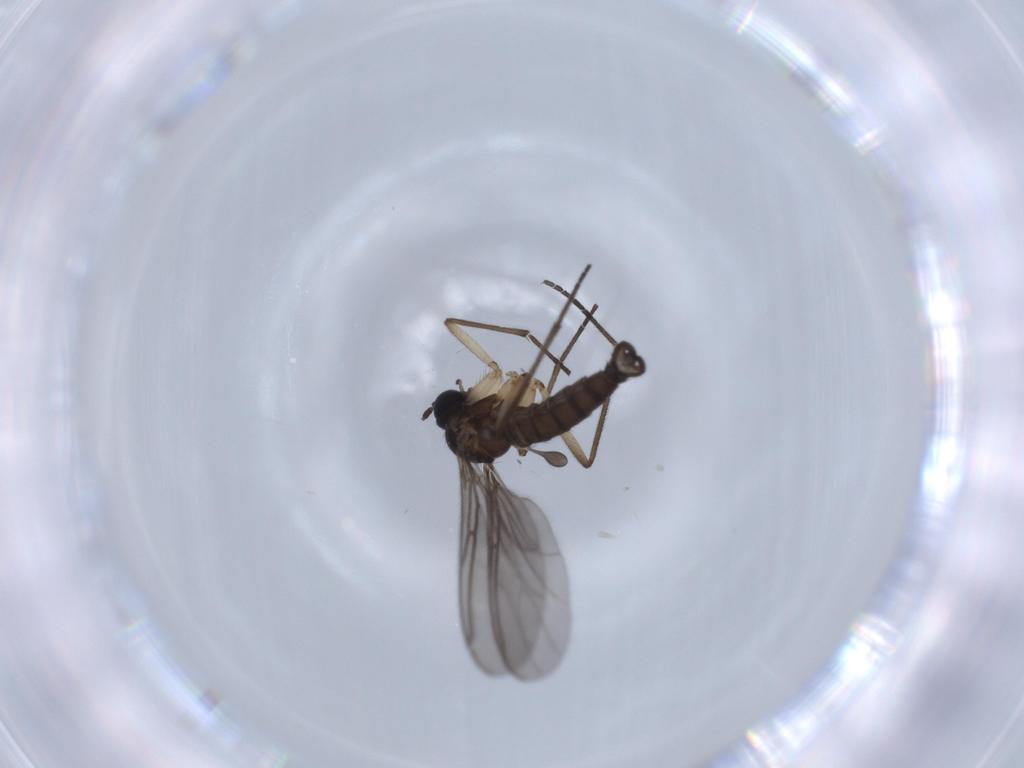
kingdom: Animalia
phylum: Arthropoda
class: Insecta
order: Diptera
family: Sciaridae
